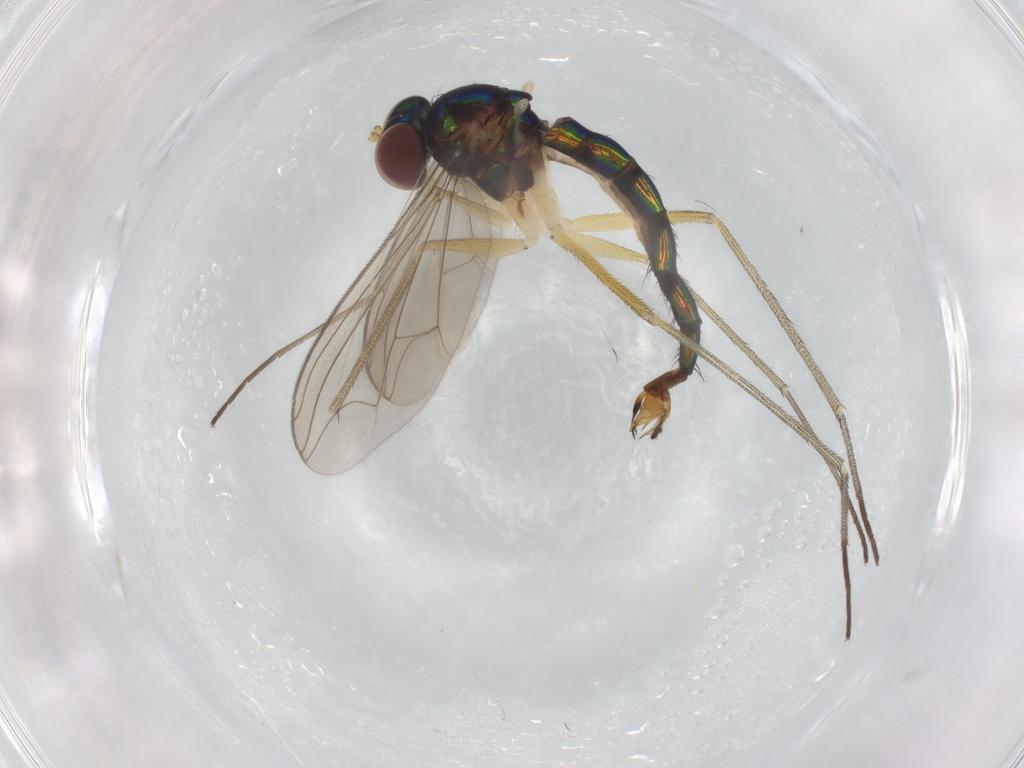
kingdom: Animalia
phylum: Arthropoda
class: Insecta
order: Diptera
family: Dolichopodidae
